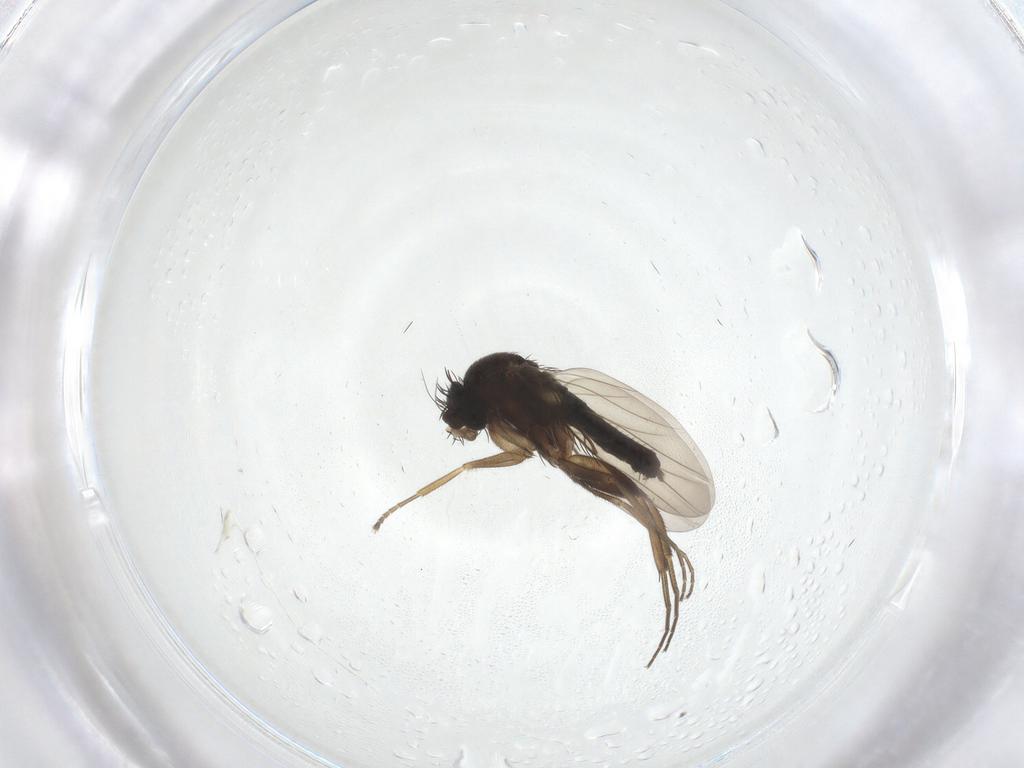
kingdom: Animalia
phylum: Arthropoda
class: Insecta
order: Diptera
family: Phoridae
